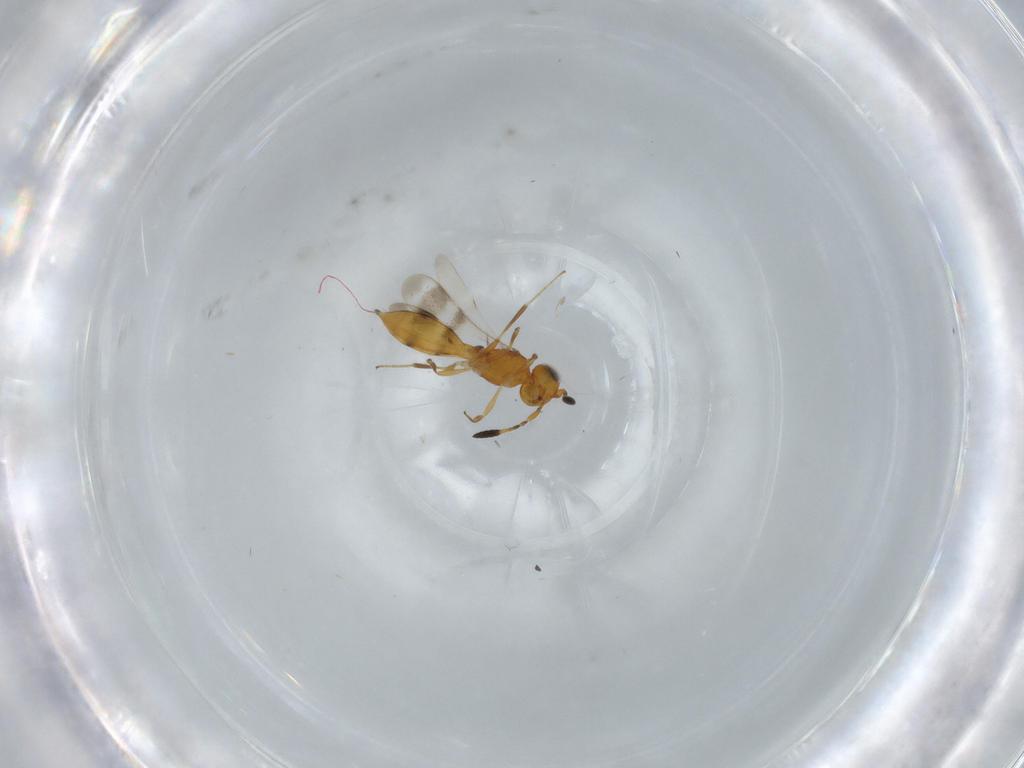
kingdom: Animalia
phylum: Arthropoda
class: Insecta
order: Hymenoptera
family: Scelionidae
